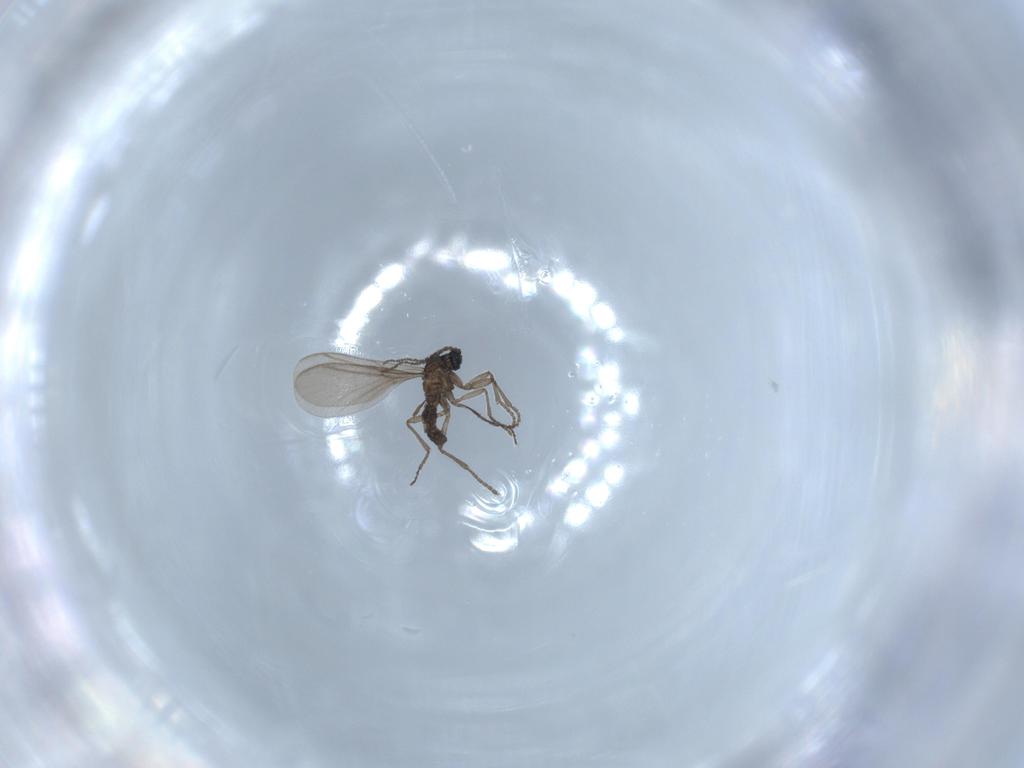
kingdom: Animalia
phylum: Arthropoda
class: Insecta
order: Diptera
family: Sciaridae
